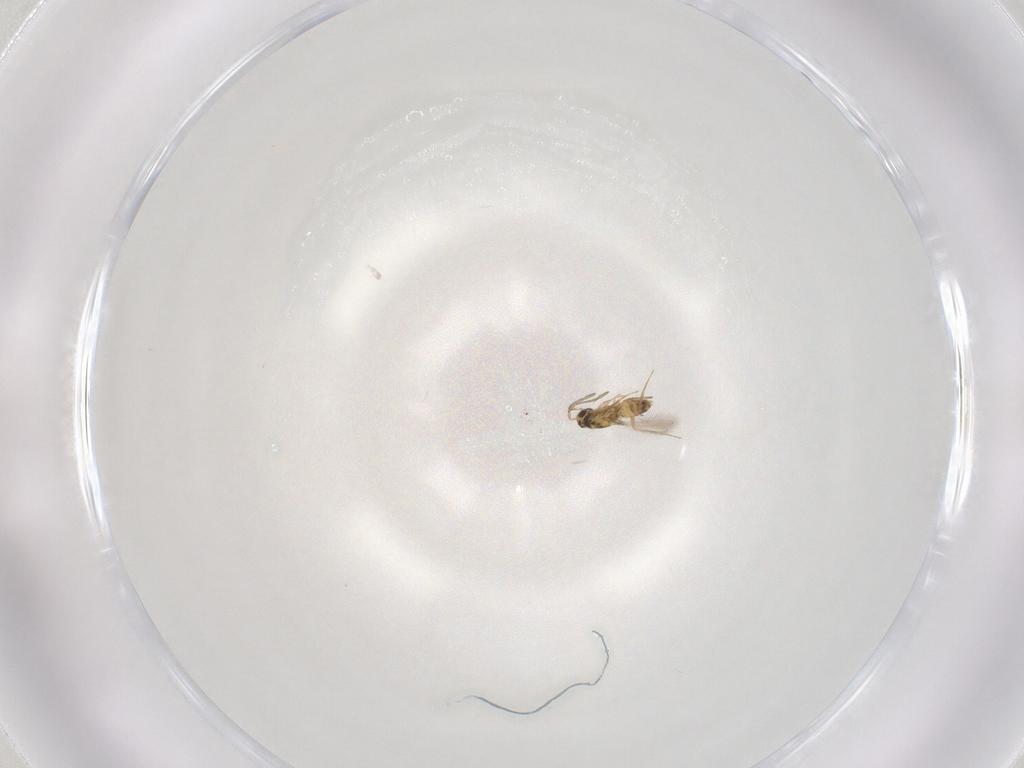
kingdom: Animalia
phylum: Arthropoda
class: Insecta
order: Hymenoptera
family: Mymaridae
